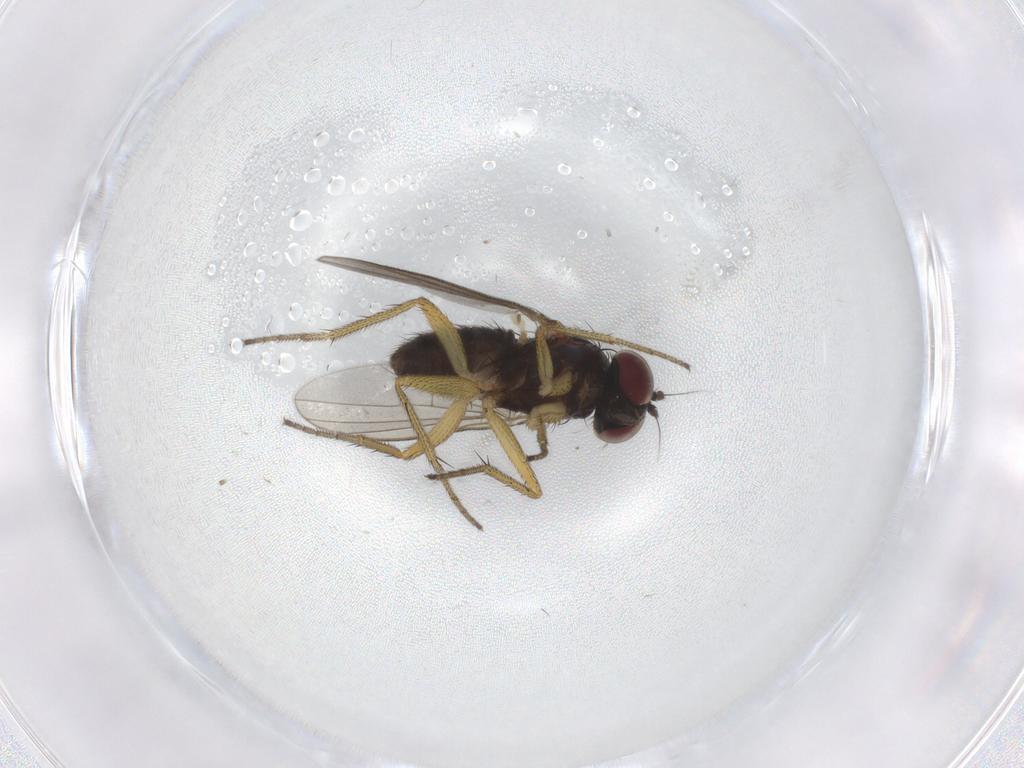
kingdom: Animalia
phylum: Arthropoda
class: Insecta
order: Diptera
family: Dolichopodidae
